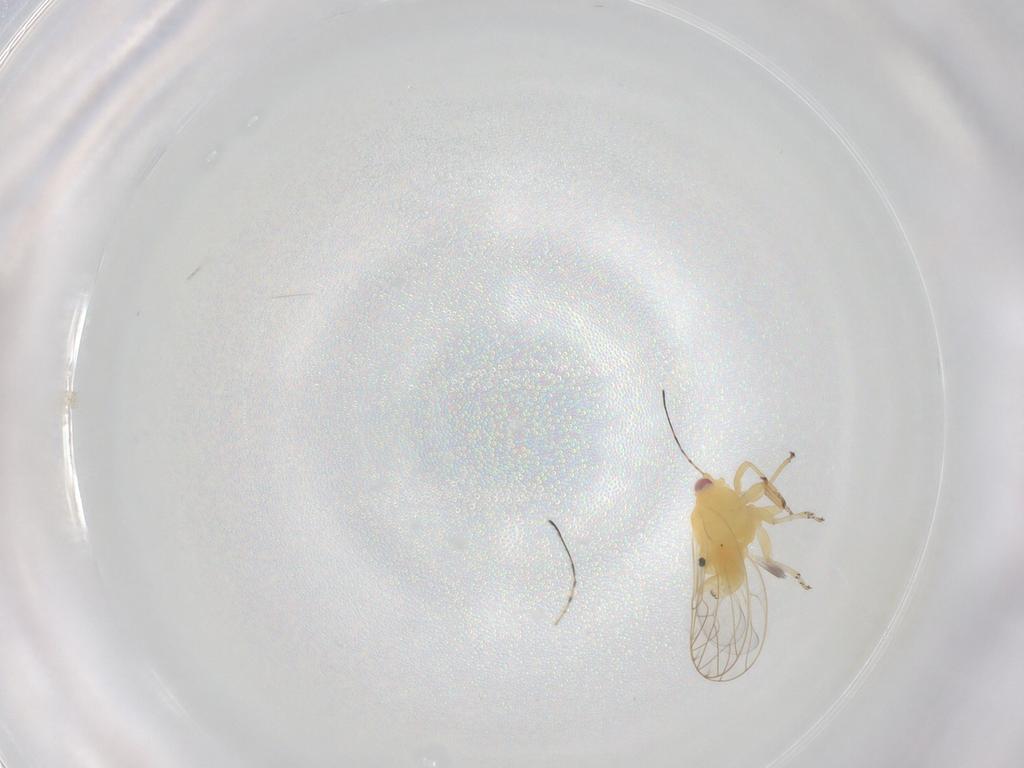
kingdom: Animalia
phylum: Arthropoda
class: Insecta
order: Hemiptera
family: Psyllidae
